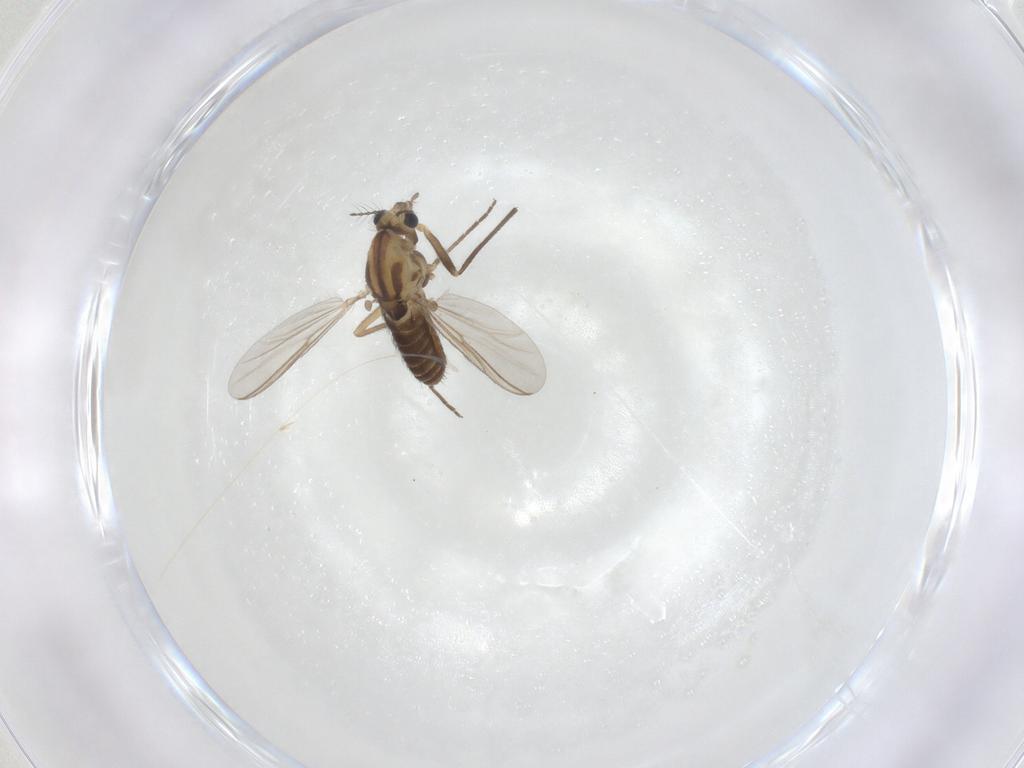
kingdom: Animalia
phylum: Arthropoda
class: Insecta
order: Diptera
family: Chironomidae
